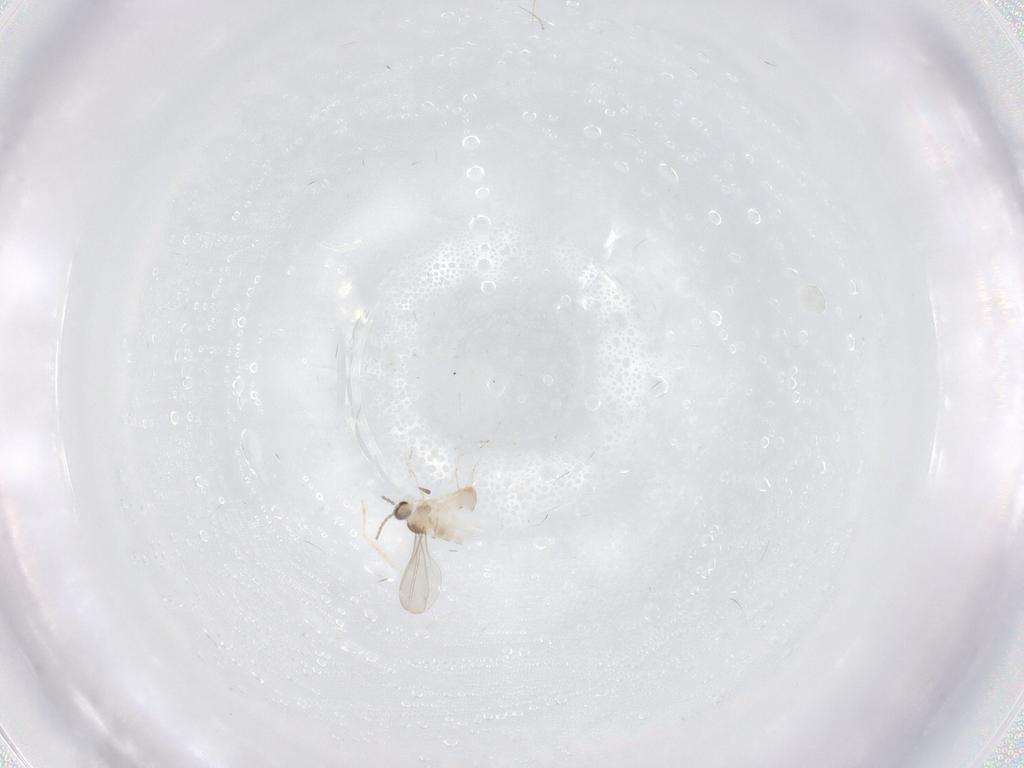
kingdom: Animalia
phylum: Arthropoda
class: Insecta
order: Diptera
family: Cecidomyiidae
